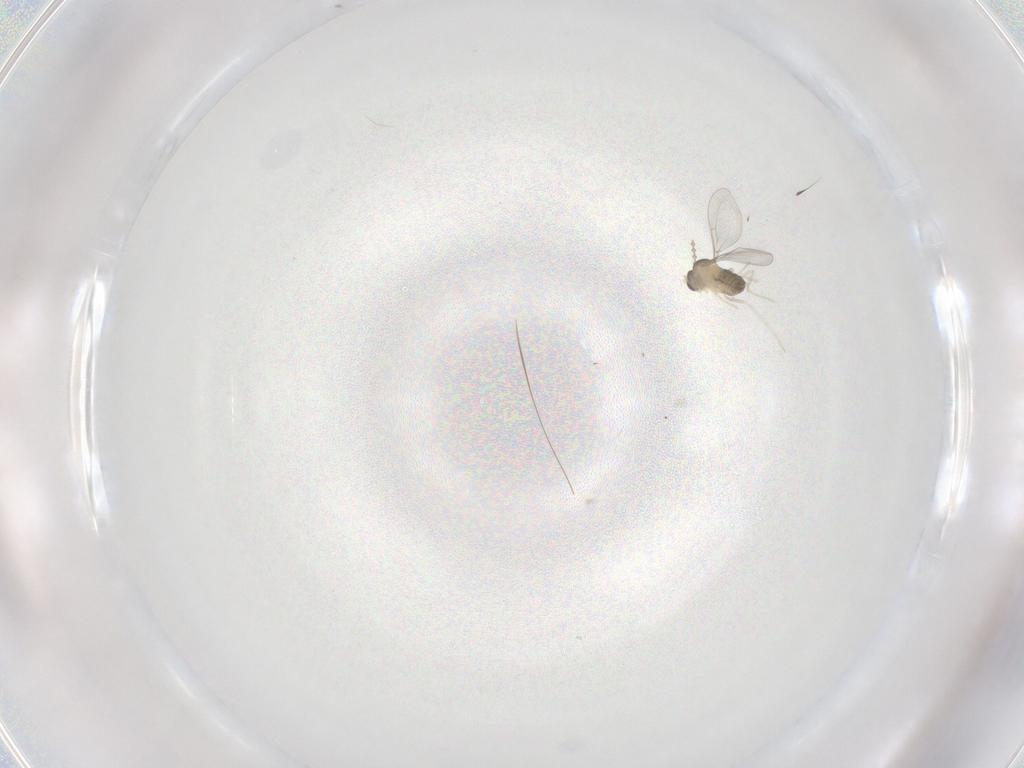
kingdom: Animalia
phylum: Arthropoda
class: Insecta
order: Diptera
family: Cecidomyiidae
